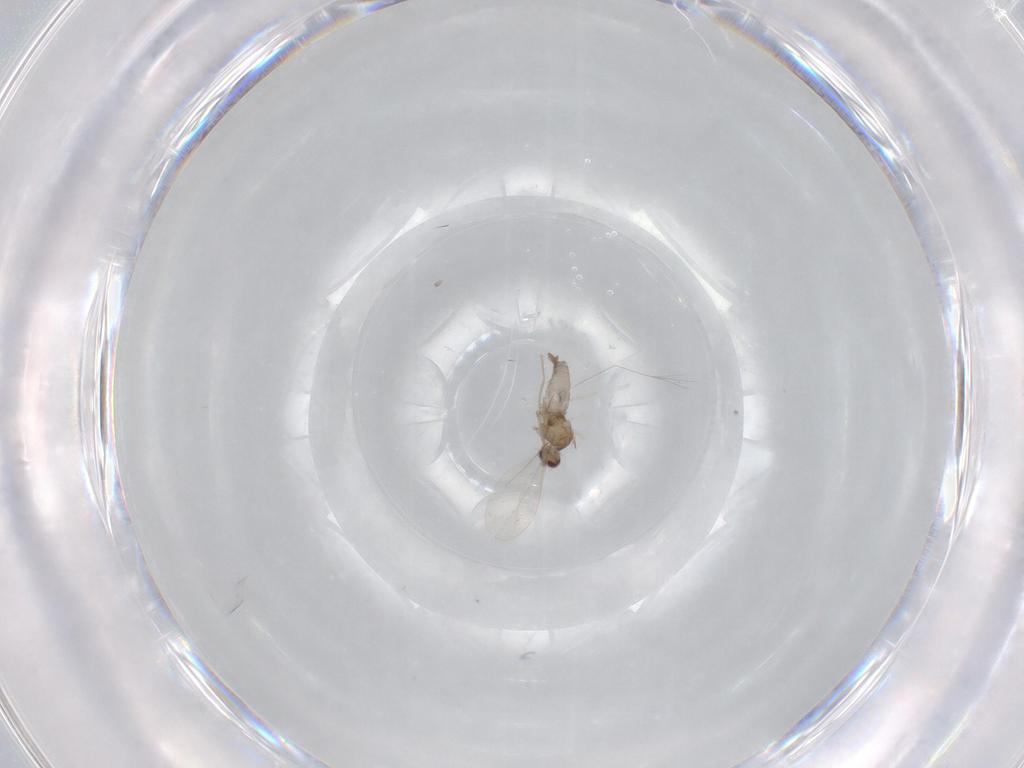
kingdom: Animalia
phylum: Arthropoda
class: Insecta
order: Diptera
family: Cecidomyiidae
